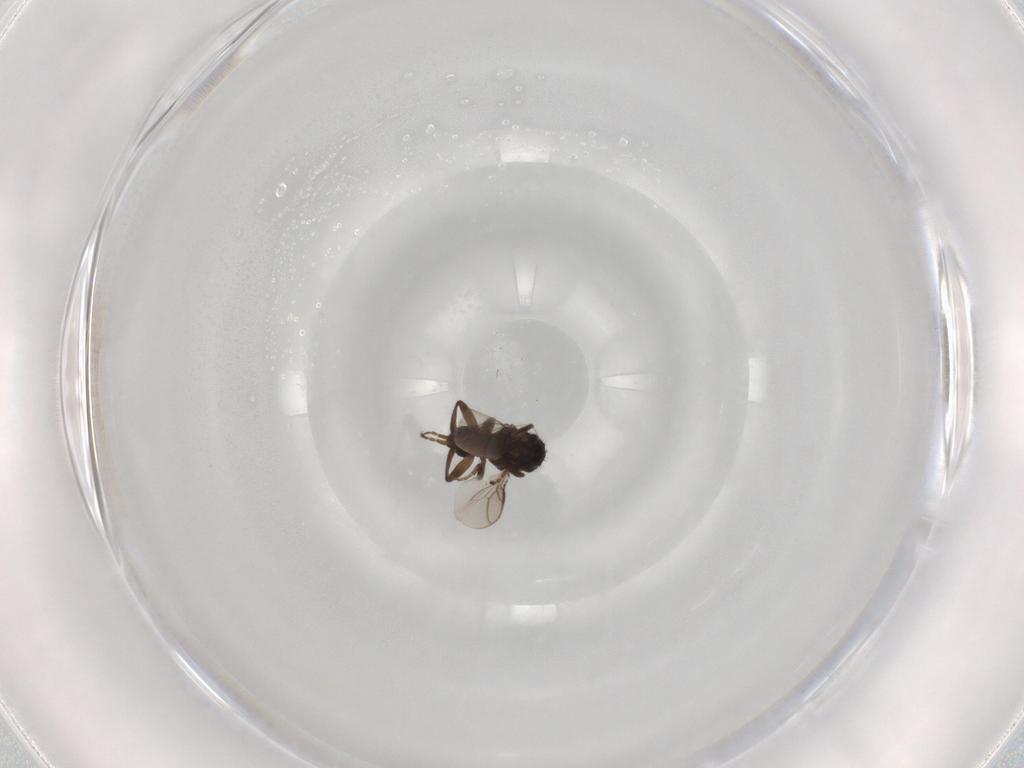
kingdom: Animalia
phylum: Arthropoda
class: Insecta
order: Diptera
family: Sphaeroceridae
